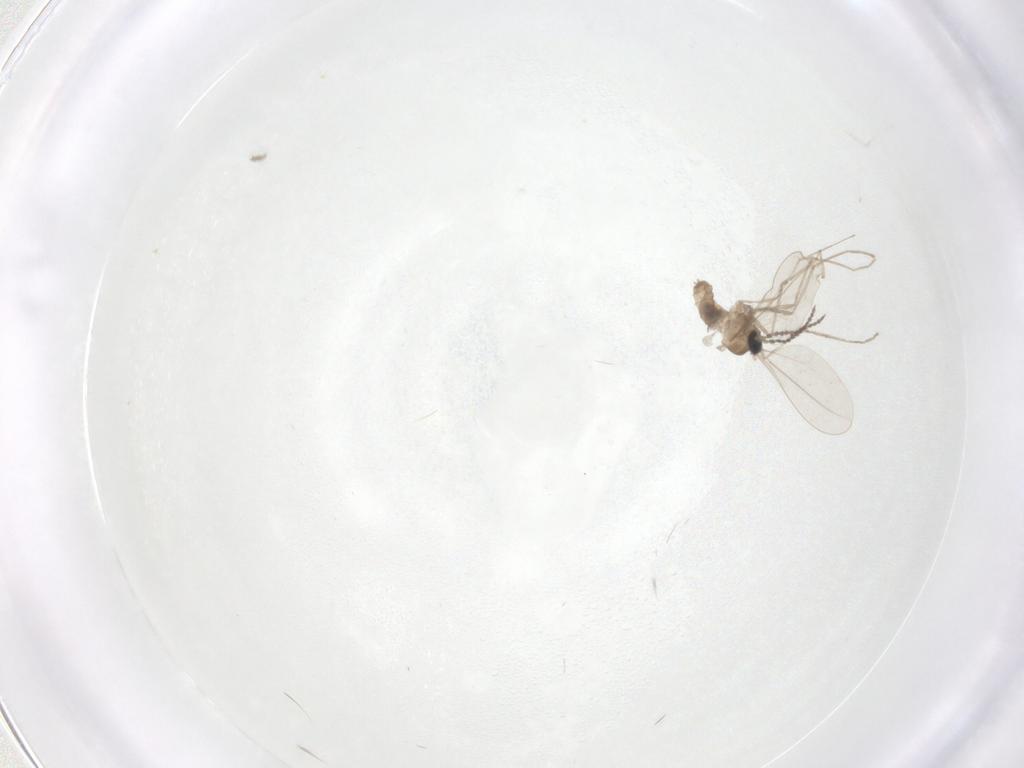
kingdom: Animalia
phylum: Arthropoda
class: Insecta
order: Diptera
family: Cecidomyiidae
